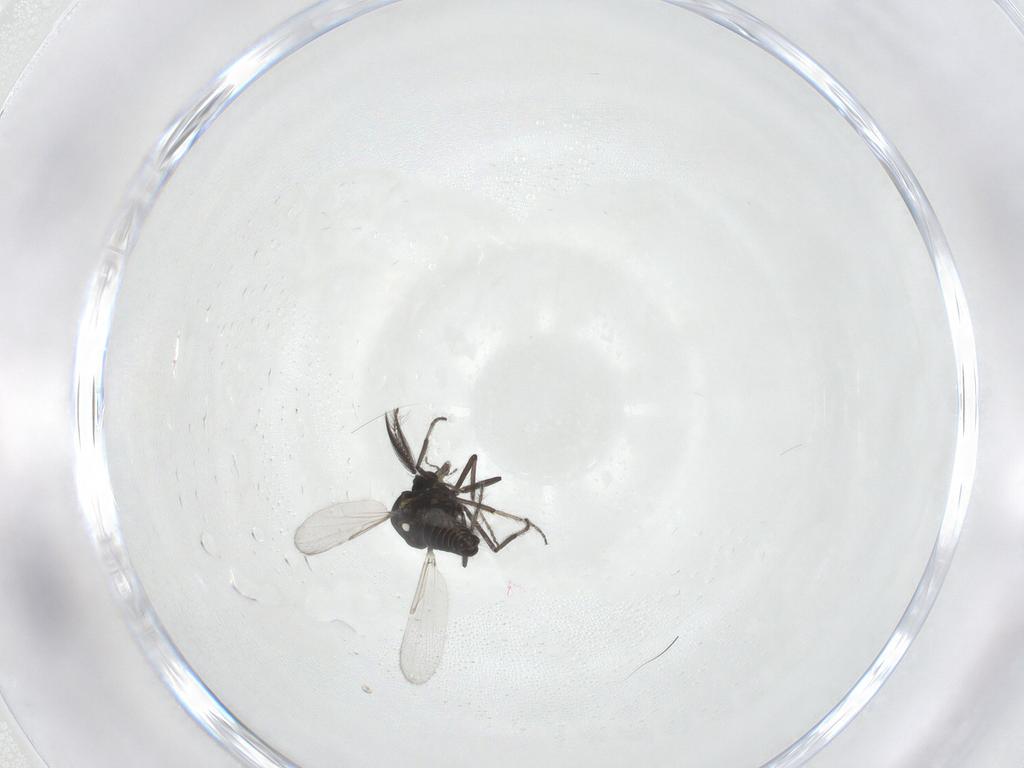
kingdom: Animalia
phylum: Arthropoda
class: Insecta
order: Diptera
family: Ceratopogonidae
